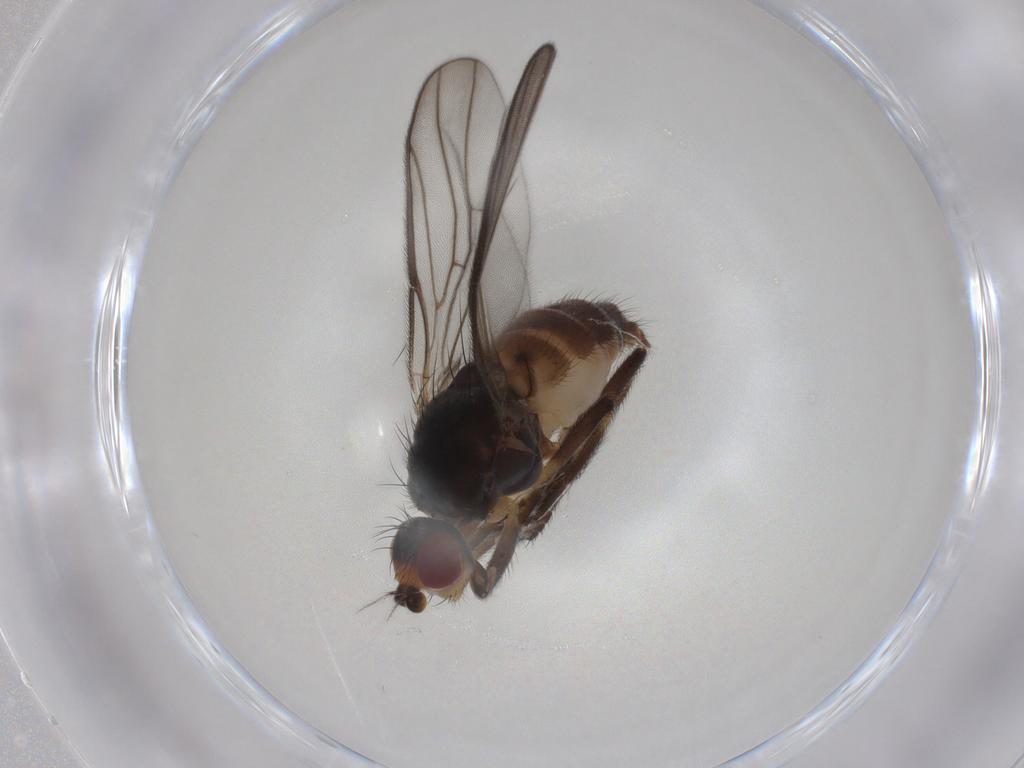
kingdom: Animalia
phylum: Arthropoda
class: Insecta
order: Diptera
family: Chloropidae
